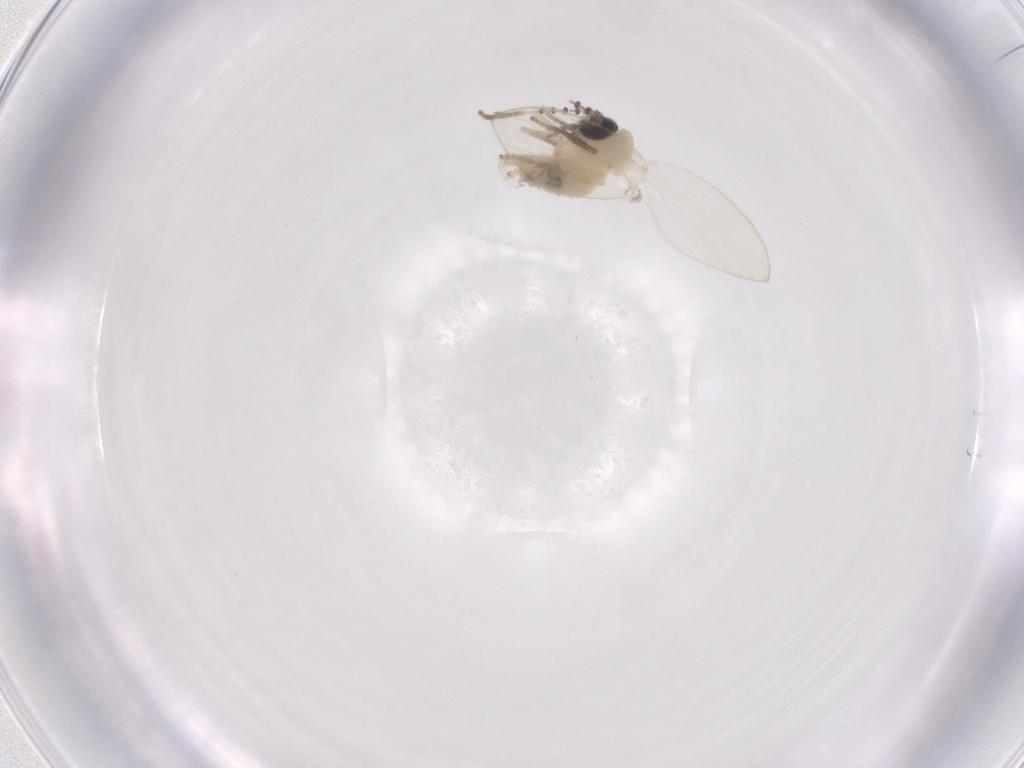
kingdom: Animalia
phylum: Arthropoda
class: Insecta
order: Diptera
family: Psychodidae
